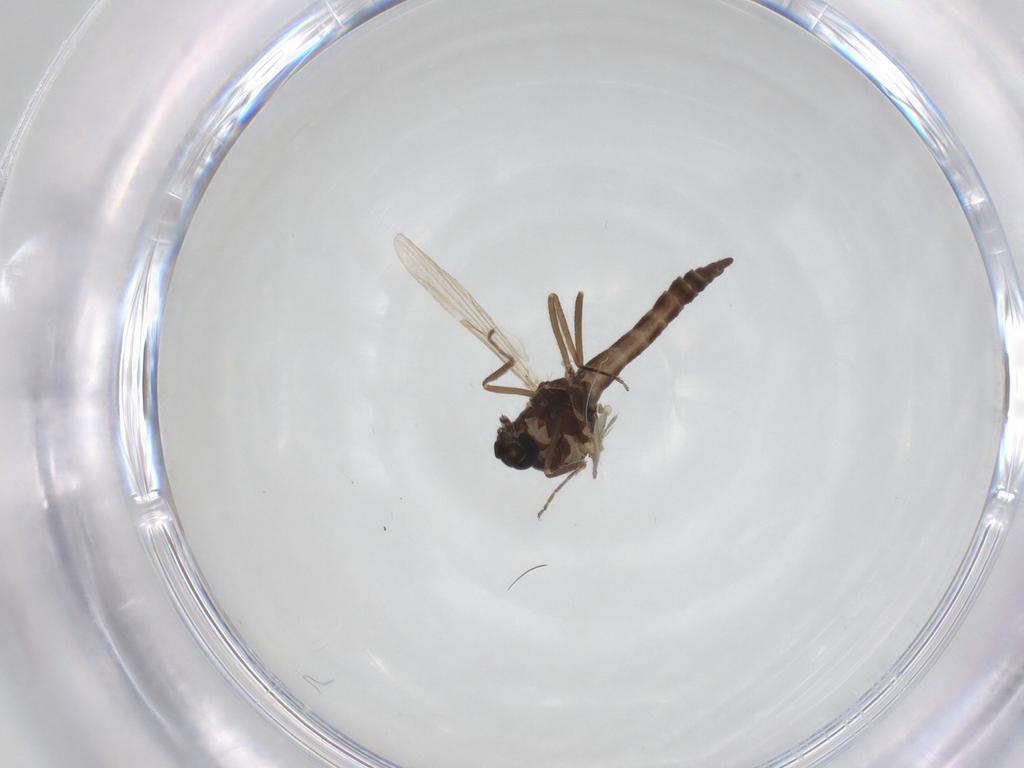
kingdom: Animalia
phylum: Arthropoda
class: Insecta
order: Diptera
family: Ceratopogonidae
